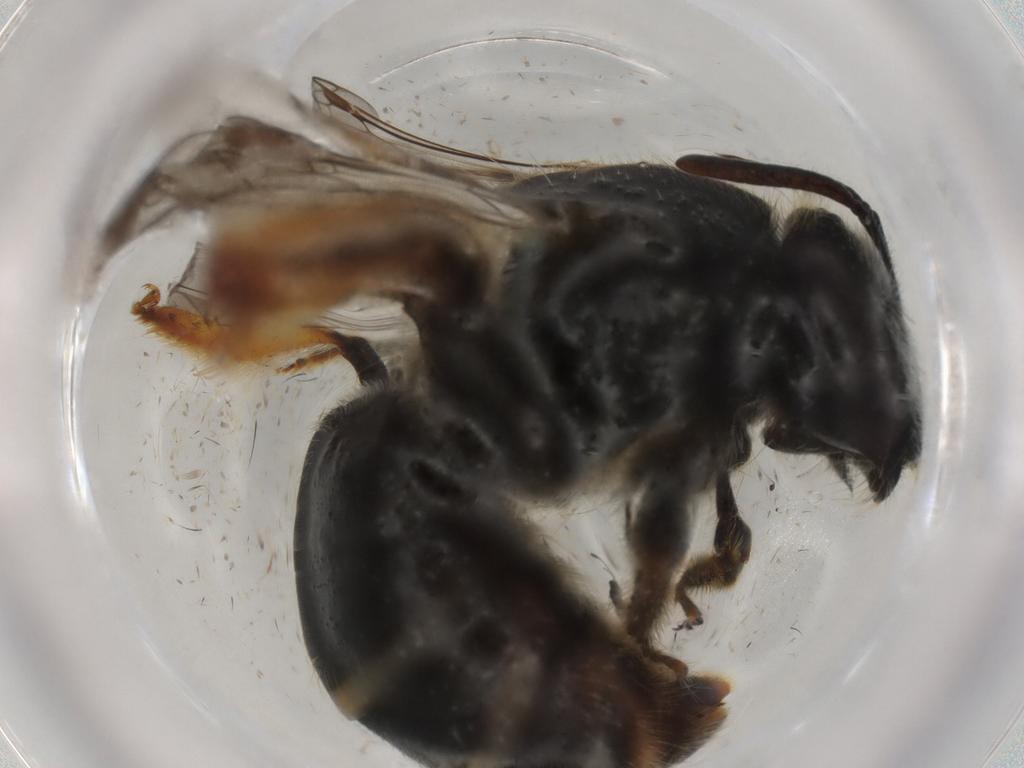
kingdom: Animalia
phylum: Arthropoda
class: Insecta
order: Hymenoptera
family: Halictidae
